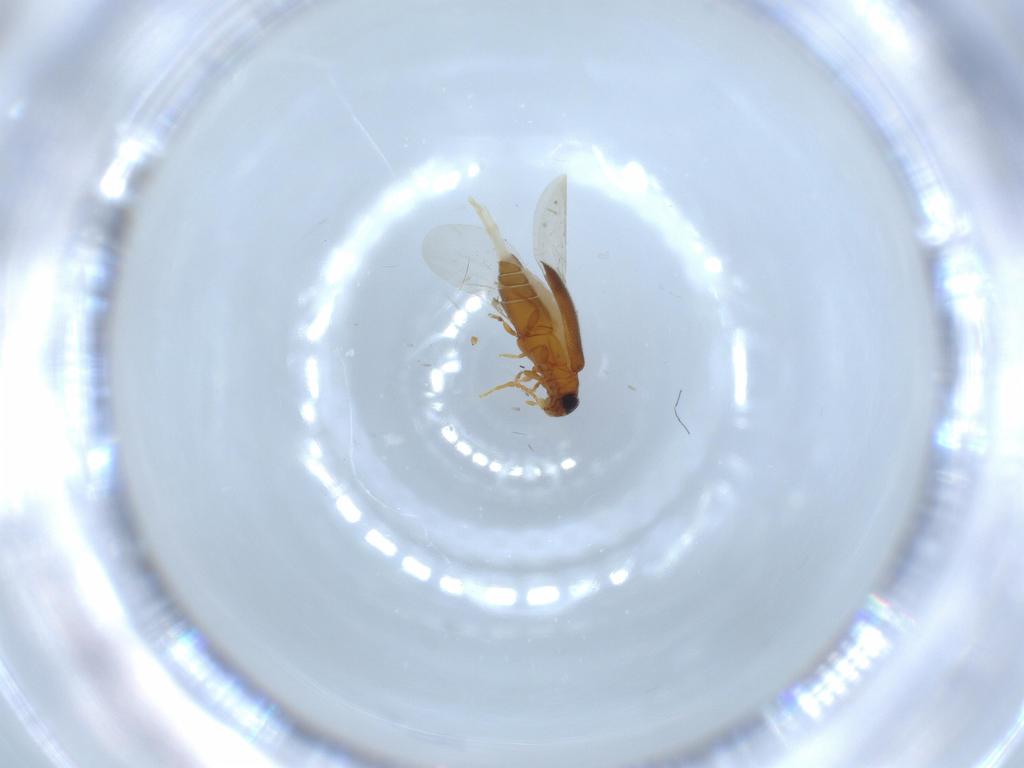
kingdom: Animalia
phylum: Arthropoda
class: Insecta
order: Coleoptera
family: Aderidae
